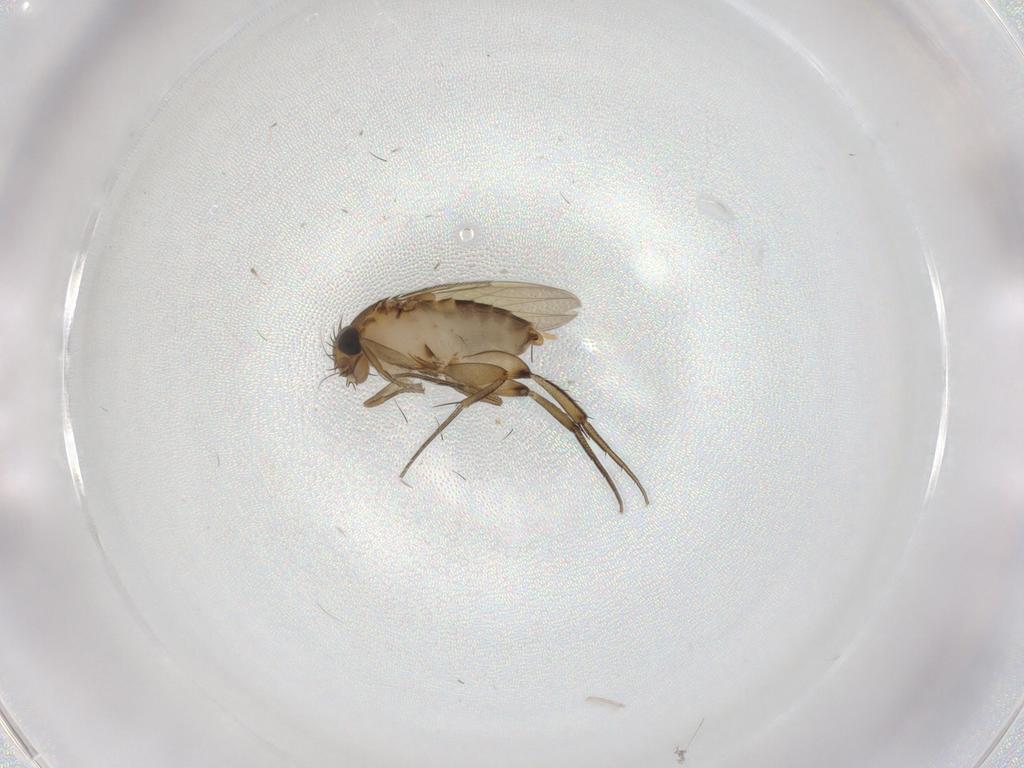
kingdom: Animalia
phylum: Arthropoda
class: Insecta
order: Diptera
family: Phoridae
